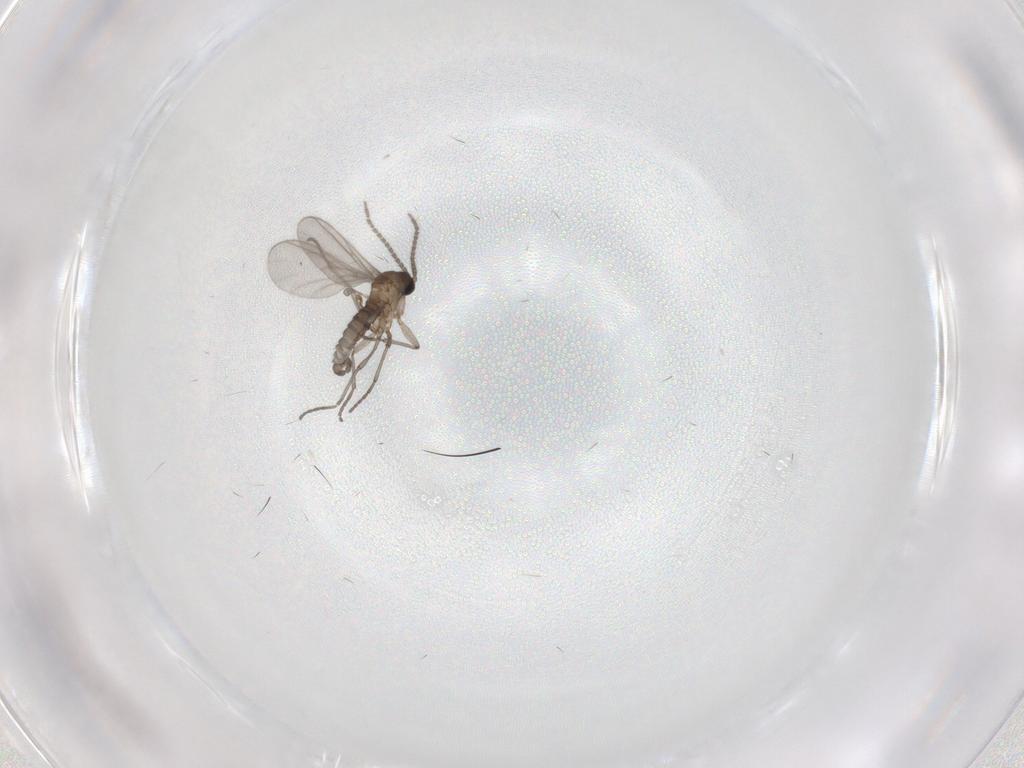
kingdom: Animalia
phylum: Arthropoda
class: Insecta
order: Diptera
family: Sciaridae
